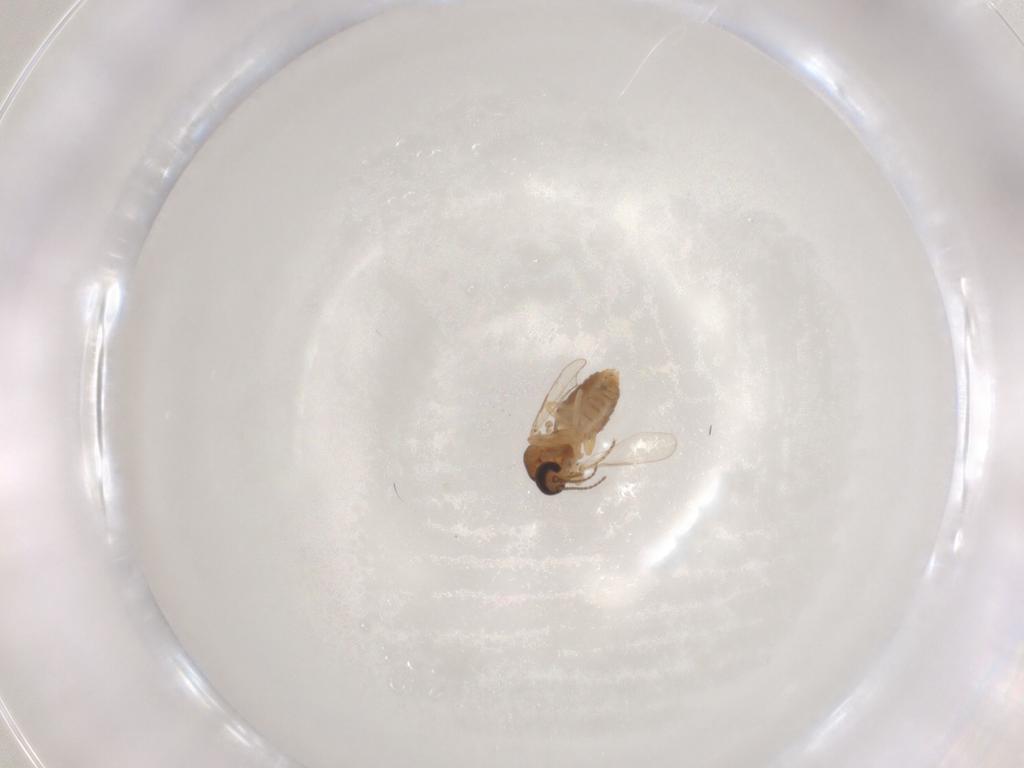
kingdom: Animalia
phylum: Arthropoda
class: Insecta
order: Diptera
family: Ceratopogonidae
